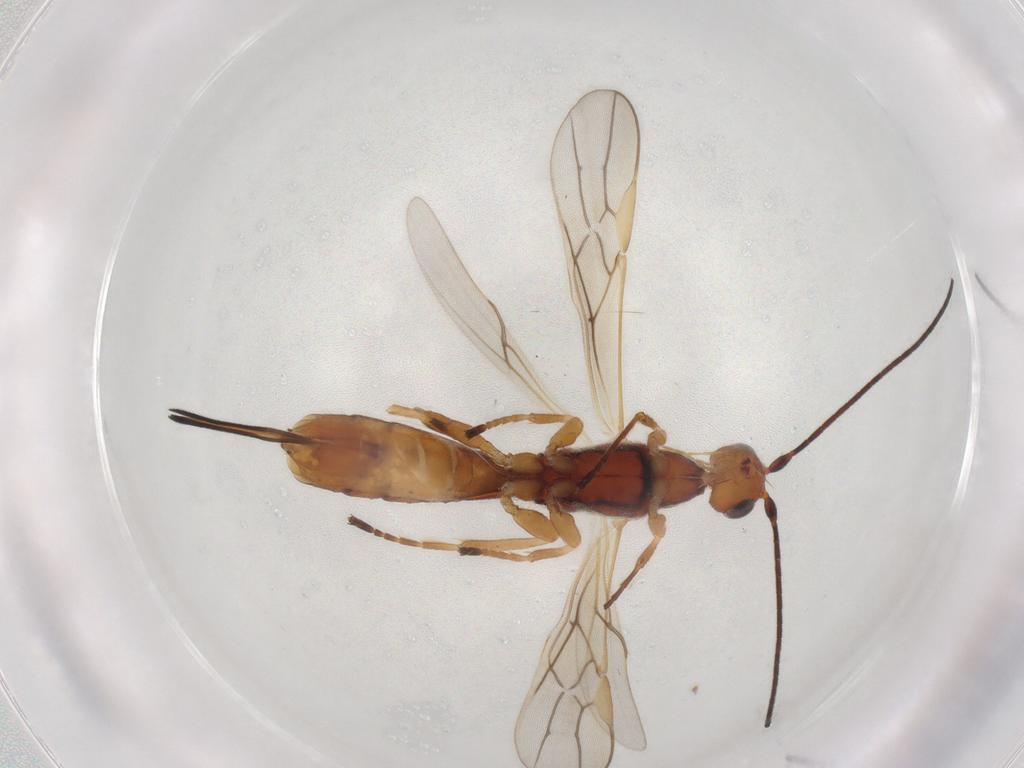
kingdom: Animalia
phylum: Arthropoda
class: Insecta
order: Hymenoptera
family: Braconidae
